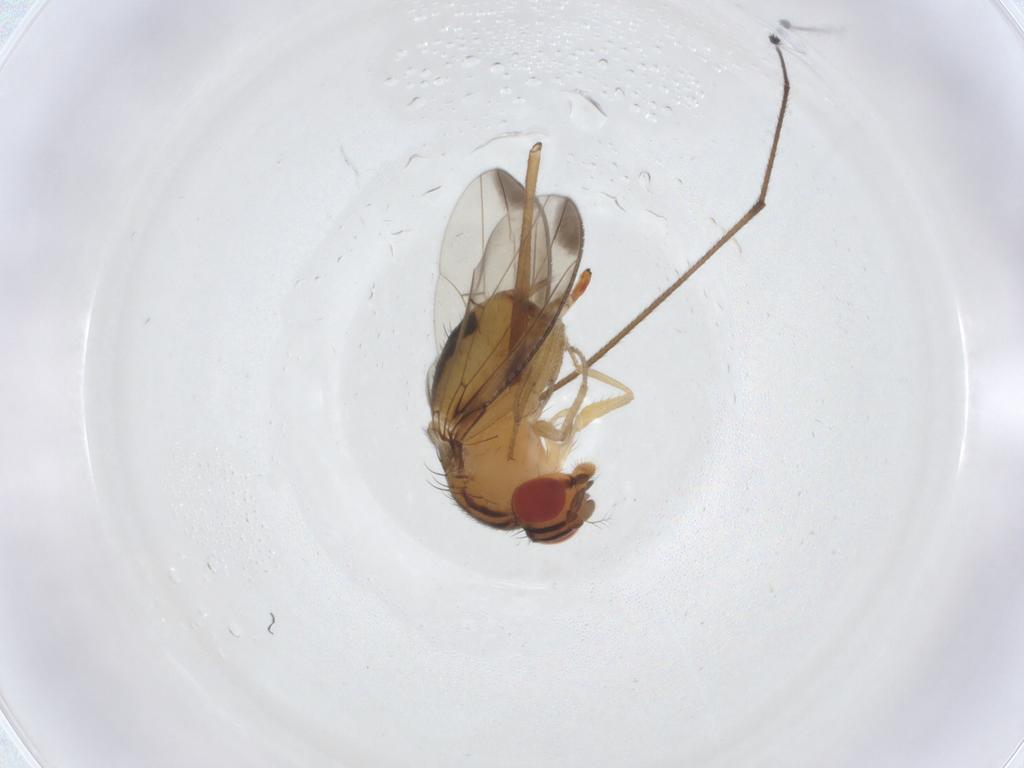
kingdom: Animalia
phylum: Arthropoda
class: Insecta
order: Diptera
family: Drosophilidae
